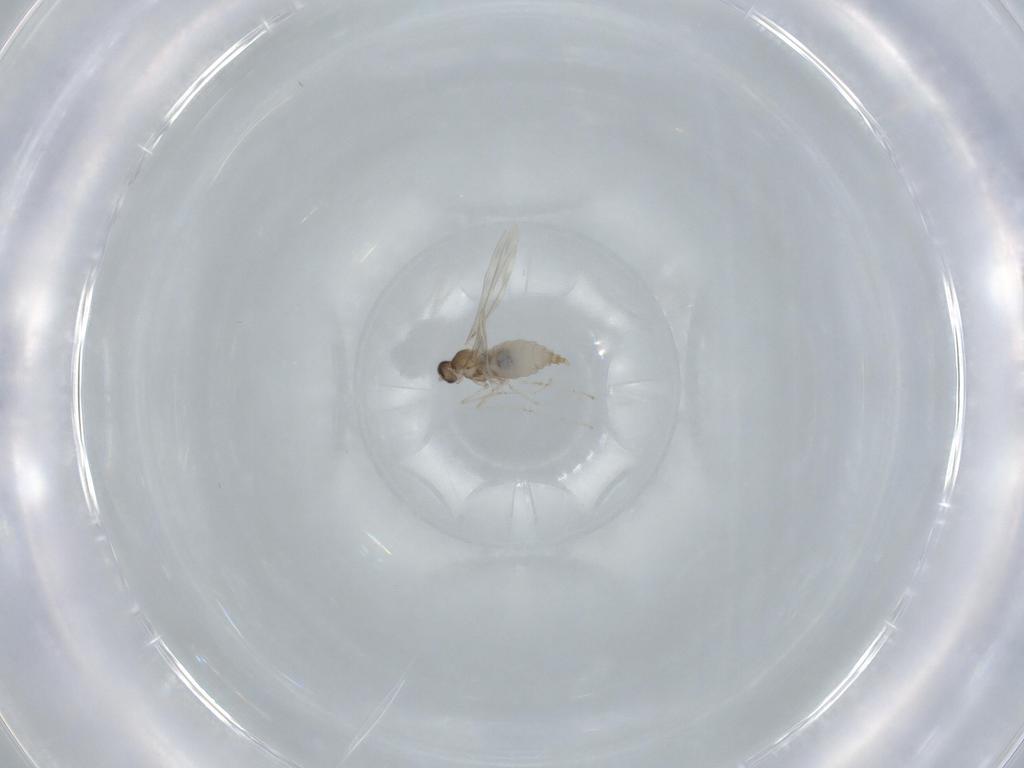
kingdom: Animalia
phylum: Arthropoda
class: Insecta
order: Diptera
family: Cecidomyiidae
